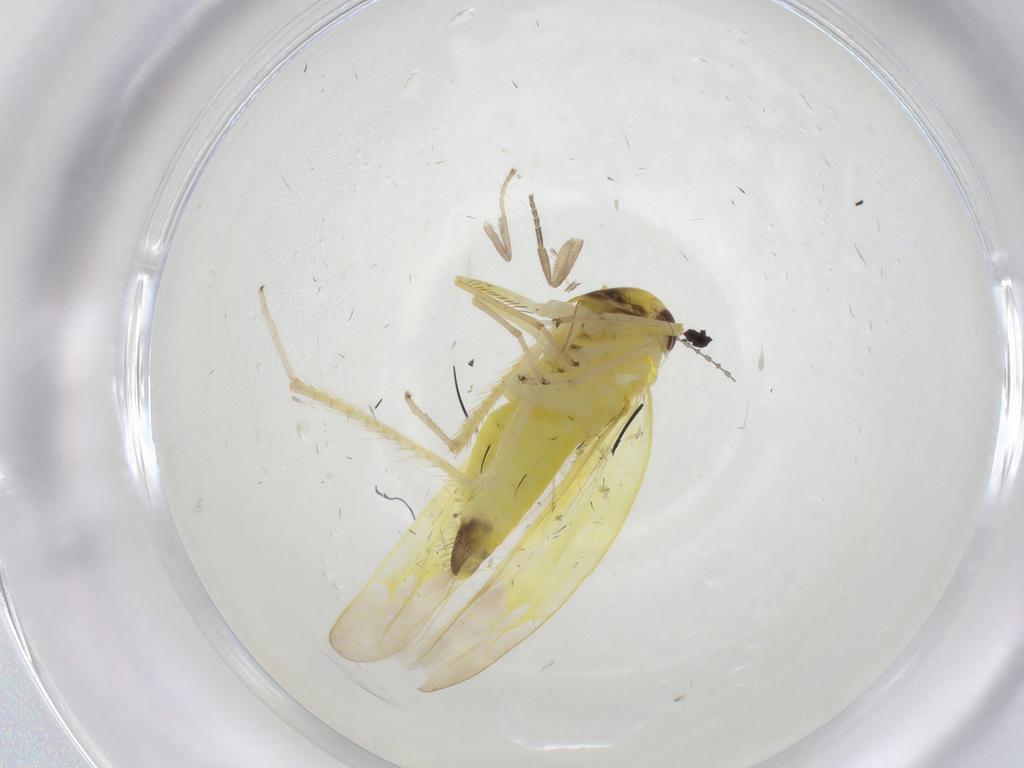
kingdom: Animalia
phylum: Arthropoda
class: Insecta
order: Hemiptera
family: Cicadellidae
